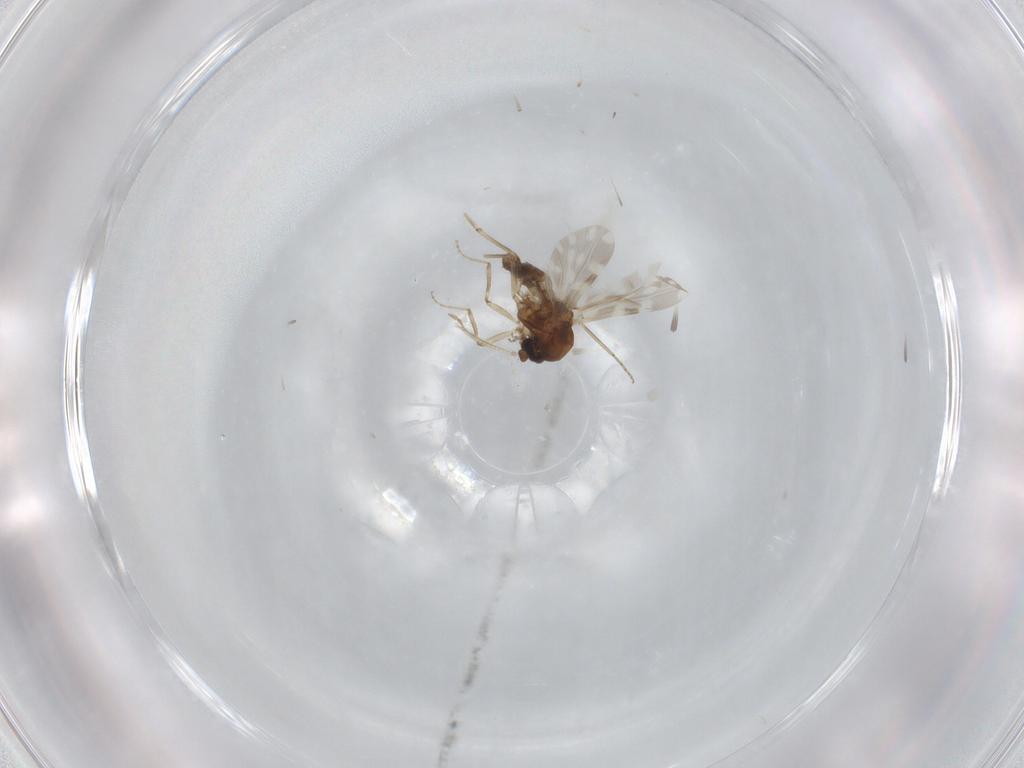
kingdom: Animalia
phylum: Arthropoda
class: Insecta
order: Diptera
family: Ceratopogonidae
